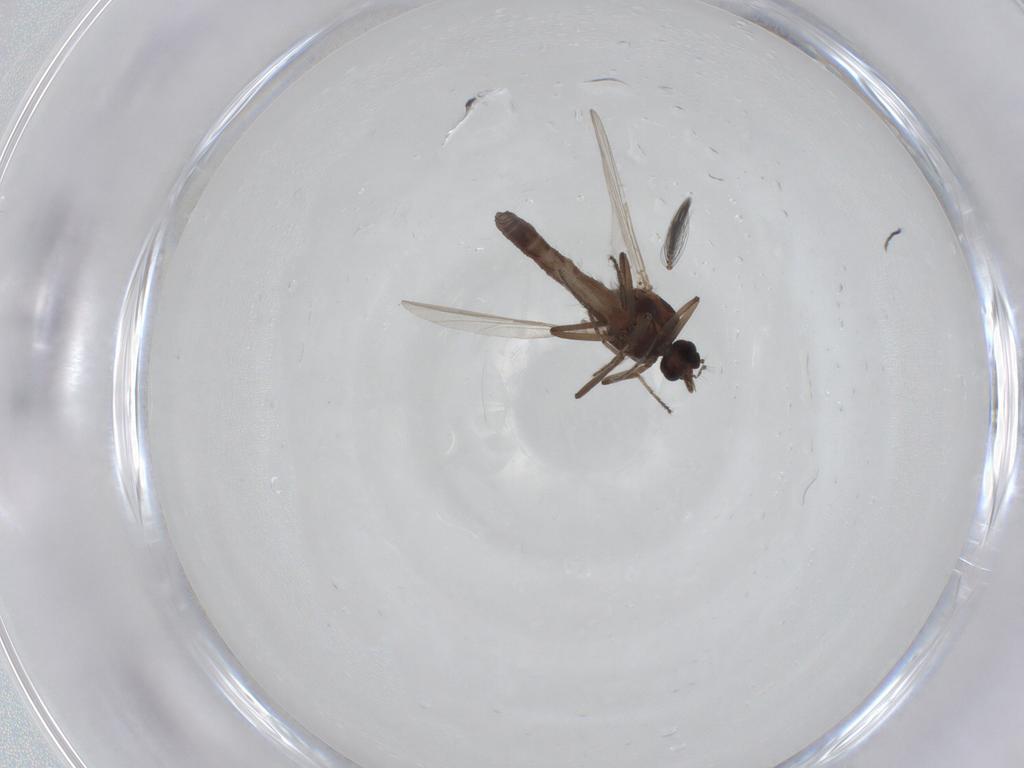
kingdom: Animalia
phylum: Arthropoda
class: Insecta
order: Diptera
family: Ceratopogonidae
